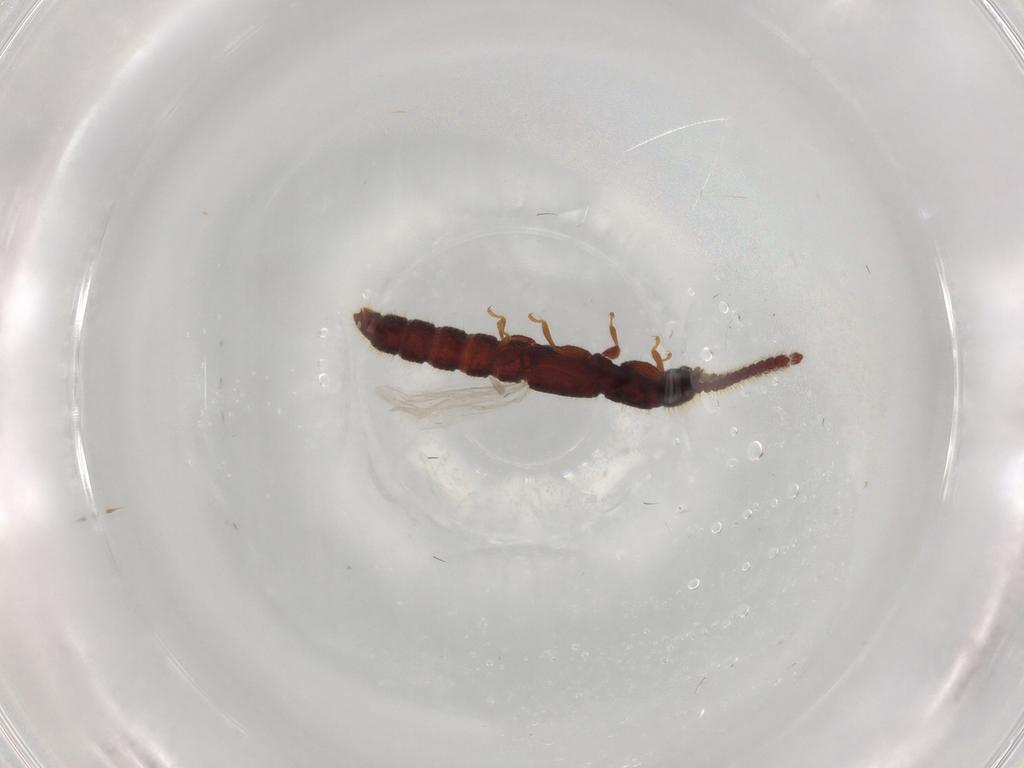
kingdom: Animalia
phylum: Arthropoda
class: Insecta
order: Coleoptera
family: Staphylinidae
